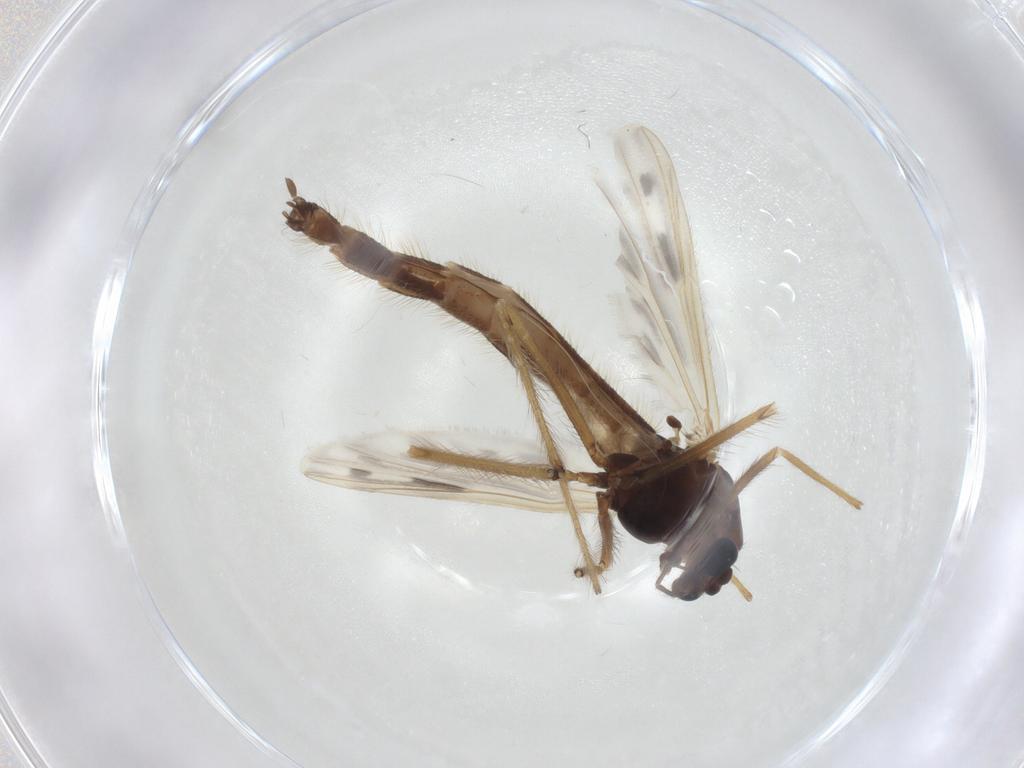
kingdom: Animalia
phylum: Arthropoda
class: Insecta
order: Diptera
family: Chironomidae
